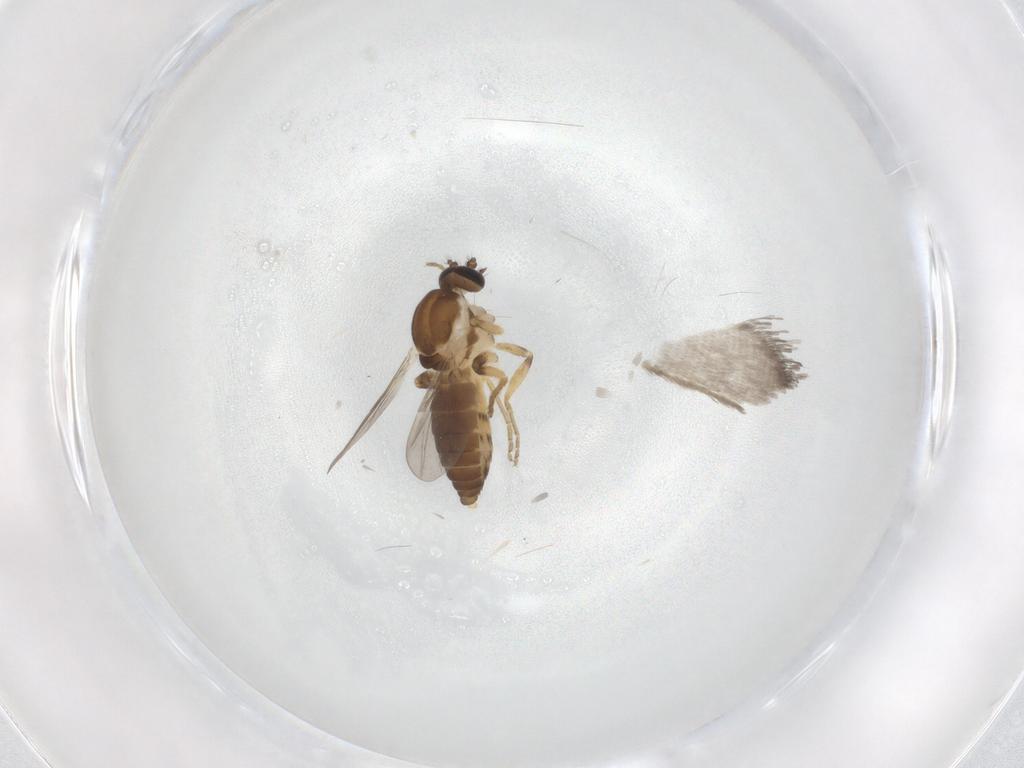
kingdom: Animalia
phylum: Arthropoda
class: Insecta
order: Diptera
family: Ceratopogonidae
